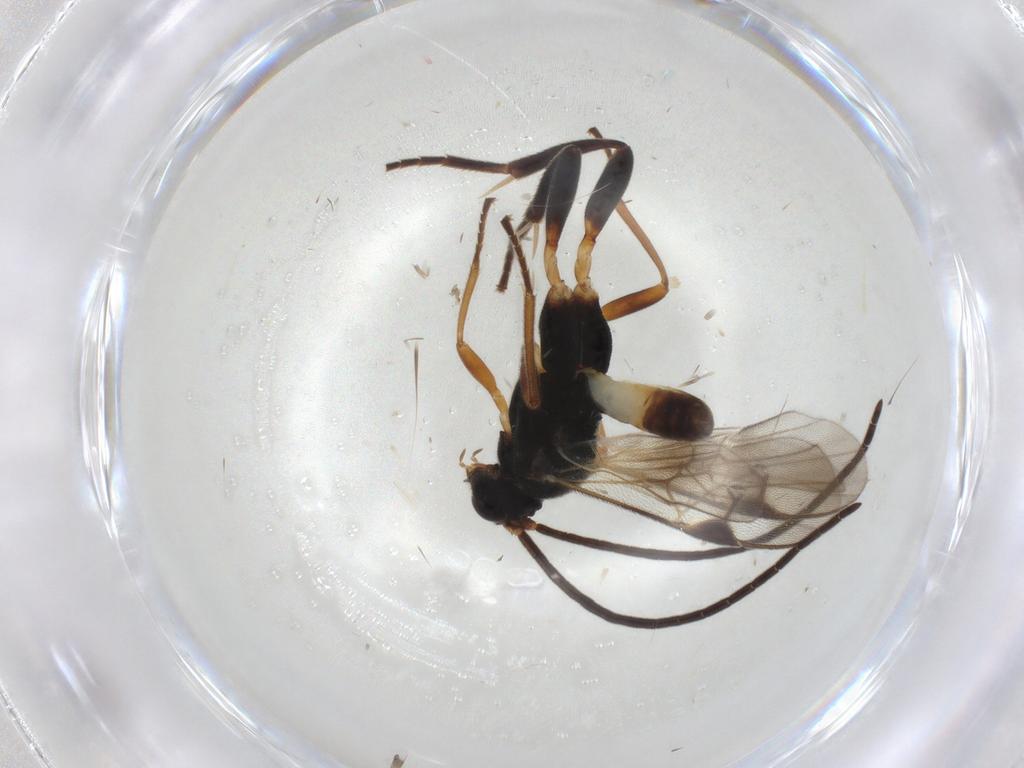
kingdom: Animalia
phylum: Arthropoda
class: Insecta
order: Hymenoptera
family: Braconidae
